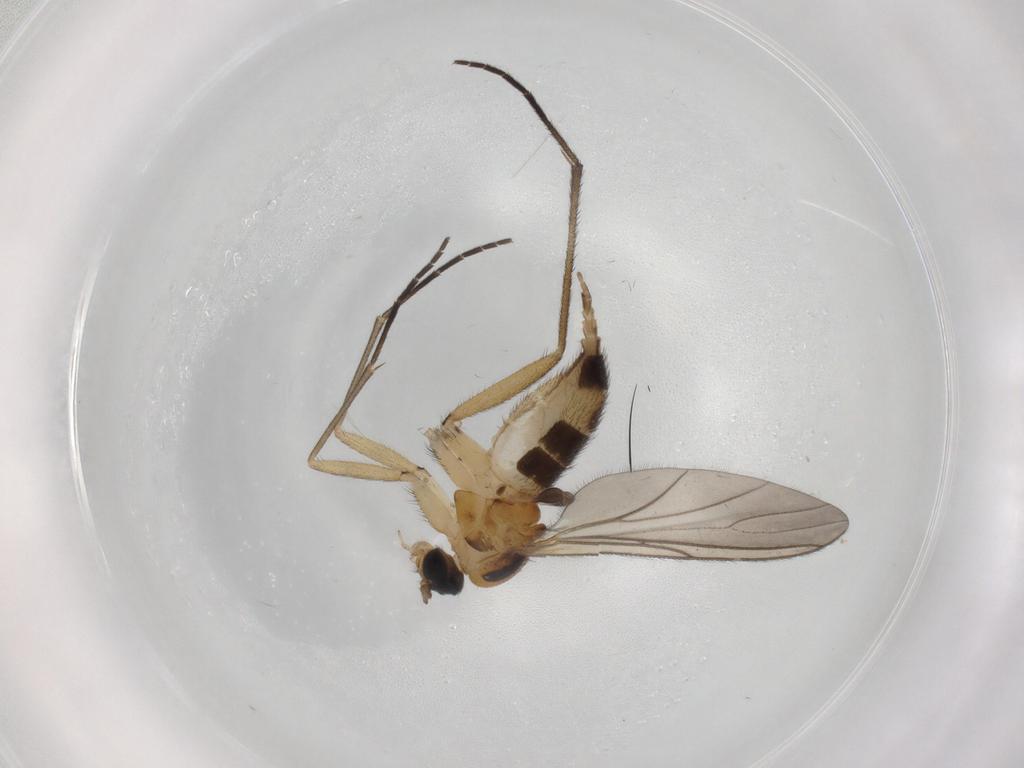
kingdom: Animalia
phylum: Arthropoda
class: Insecta
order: Diptera
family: Sciaridae
